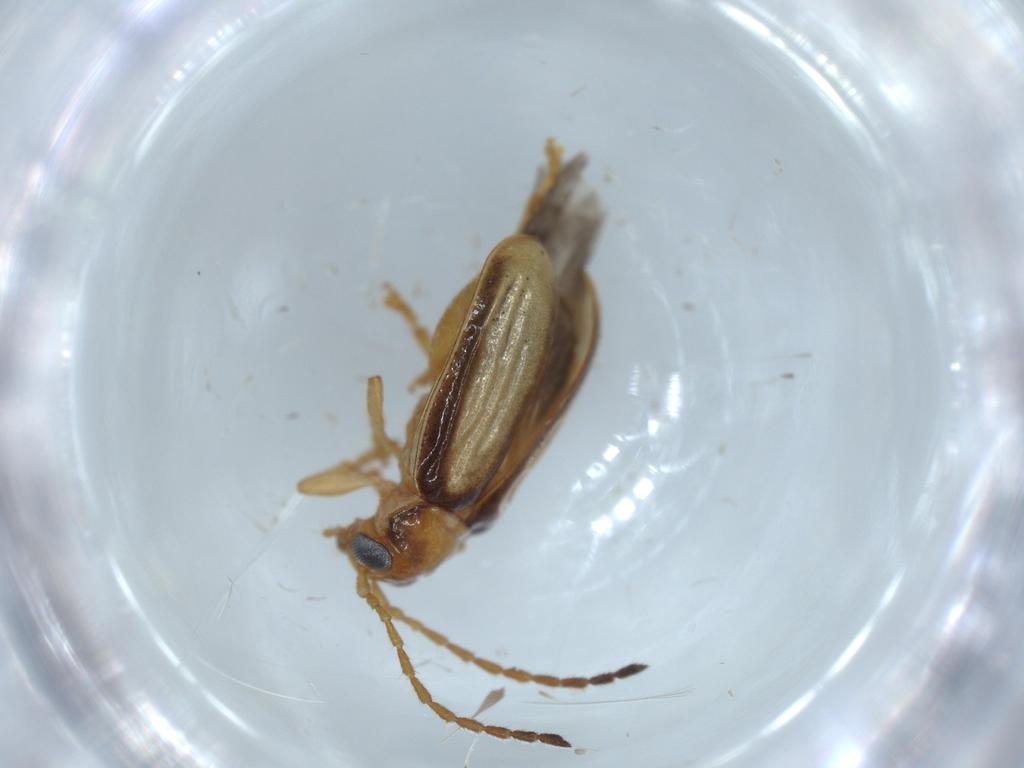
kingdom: Animalia
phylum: Arthropoda
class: Insecta
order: Coleoptera
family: Chrysomelidae
